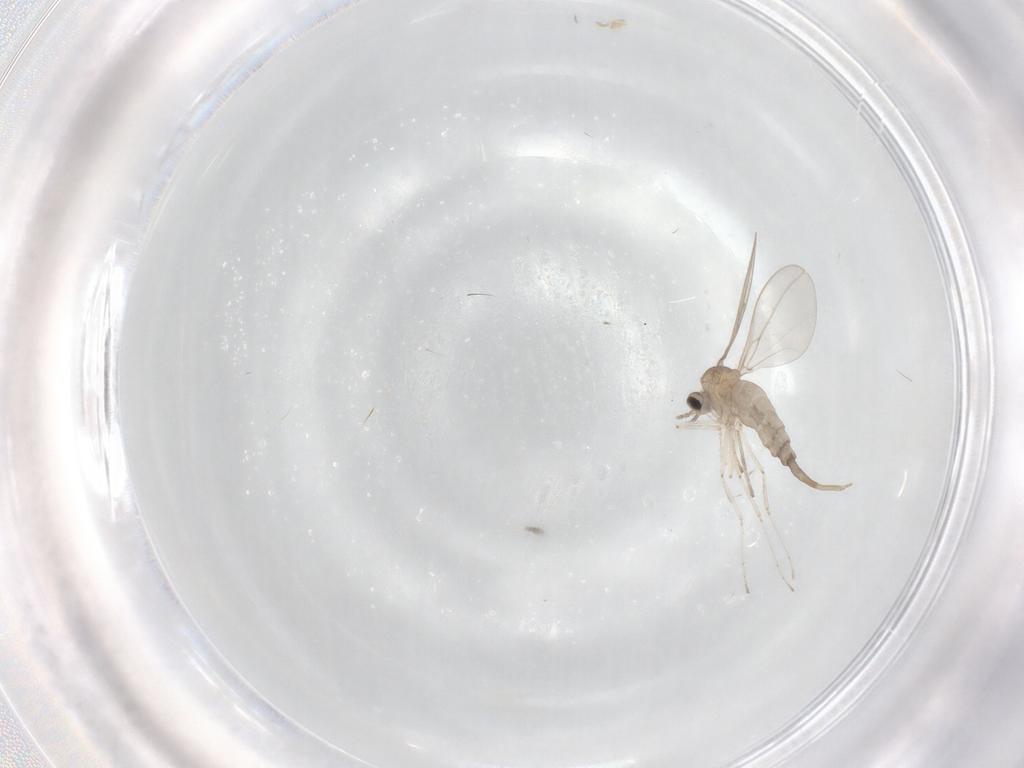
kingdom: Animalia
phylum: Arthropoda
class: Insecta
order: Diptera
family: Cecidomyiidae
